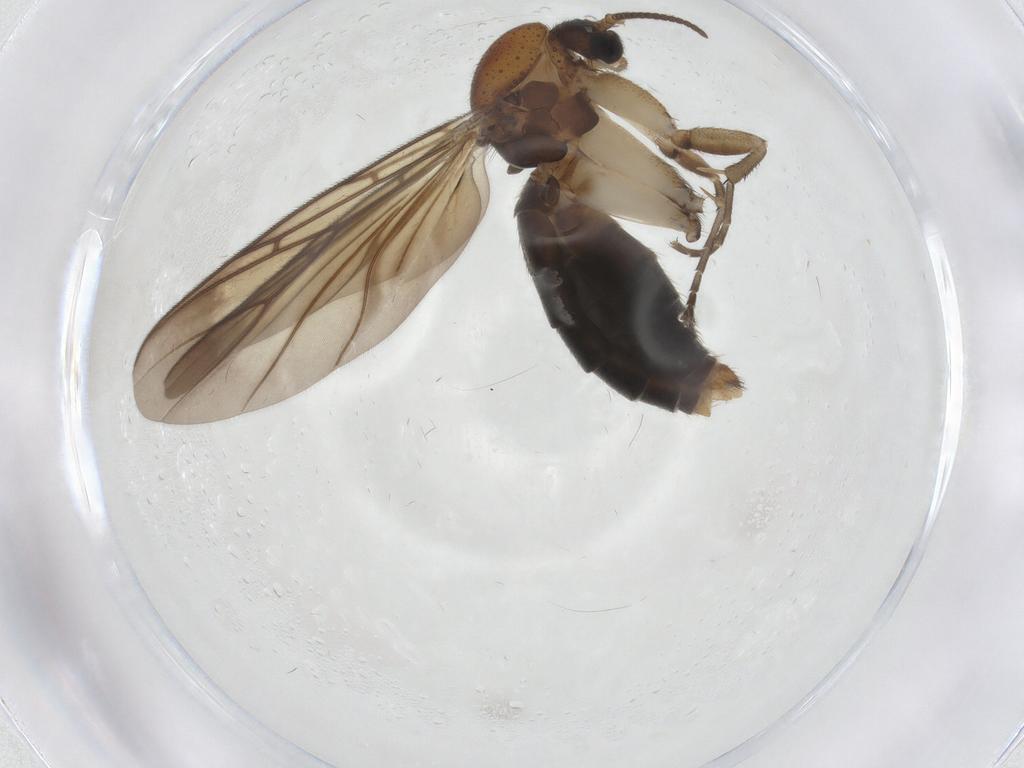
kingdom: Animalia
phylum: Arthropoda
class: Insecta
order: Diptera
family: Mycetophilidae
